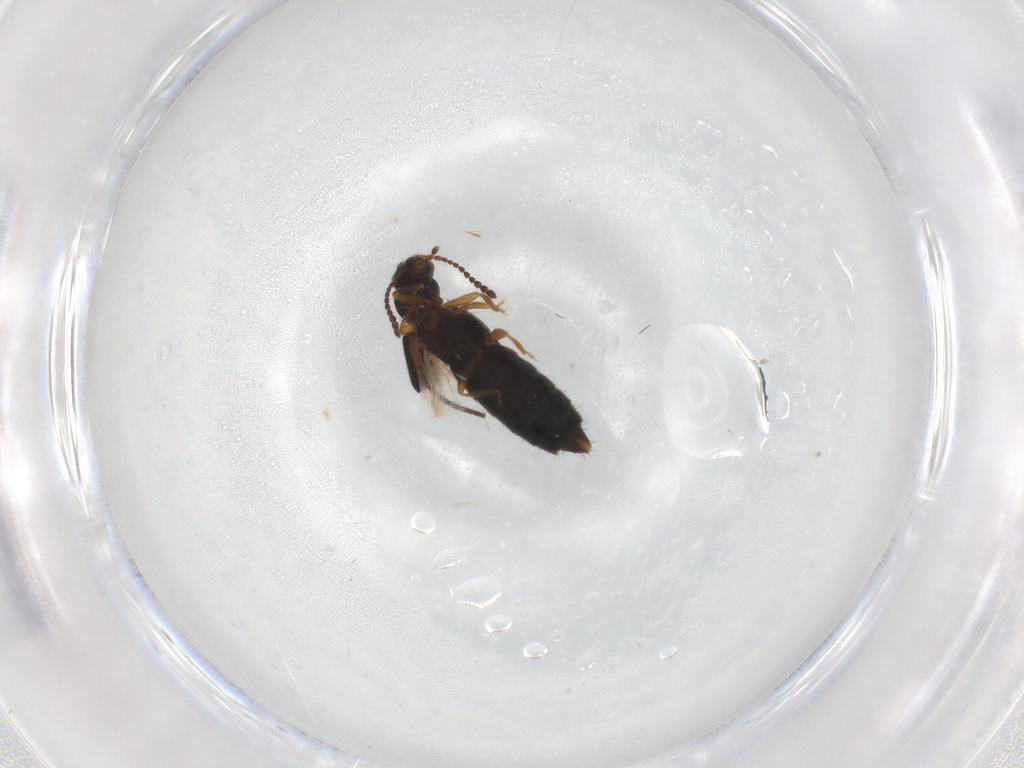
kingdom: Animalia
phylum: Arthropoda
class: Insecta
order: Coleoptera
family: Staphylinidae
